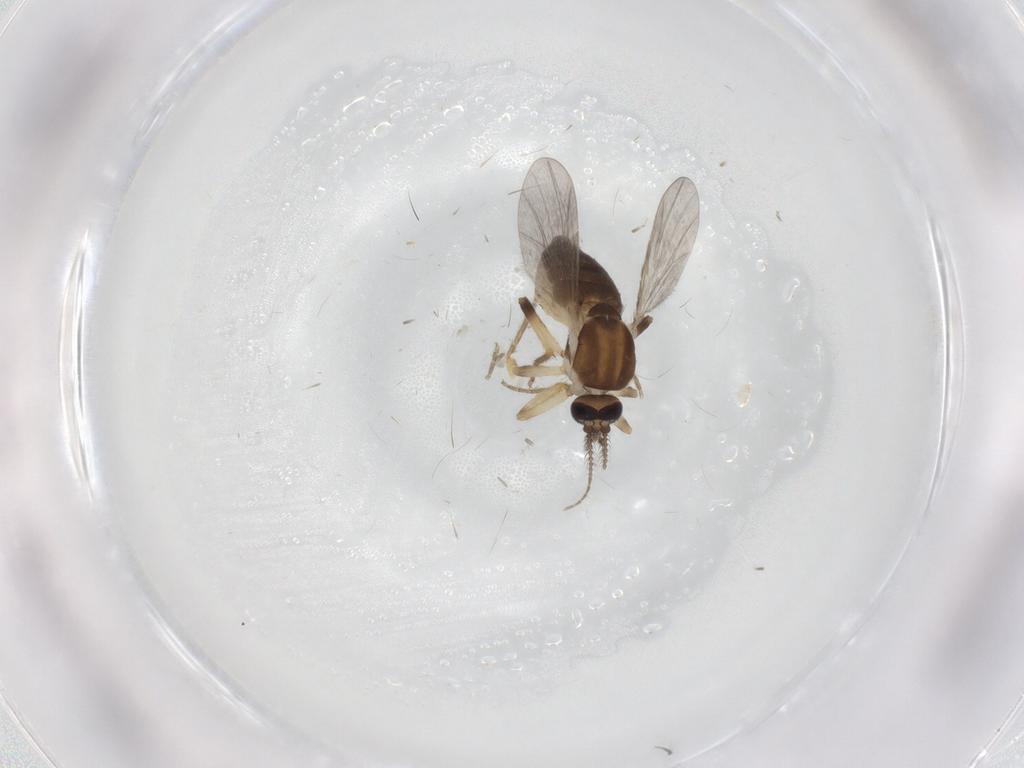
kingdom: Animalia
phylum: Arthropoda
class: Insecta
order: Diptera
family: Ceratopogonidae
